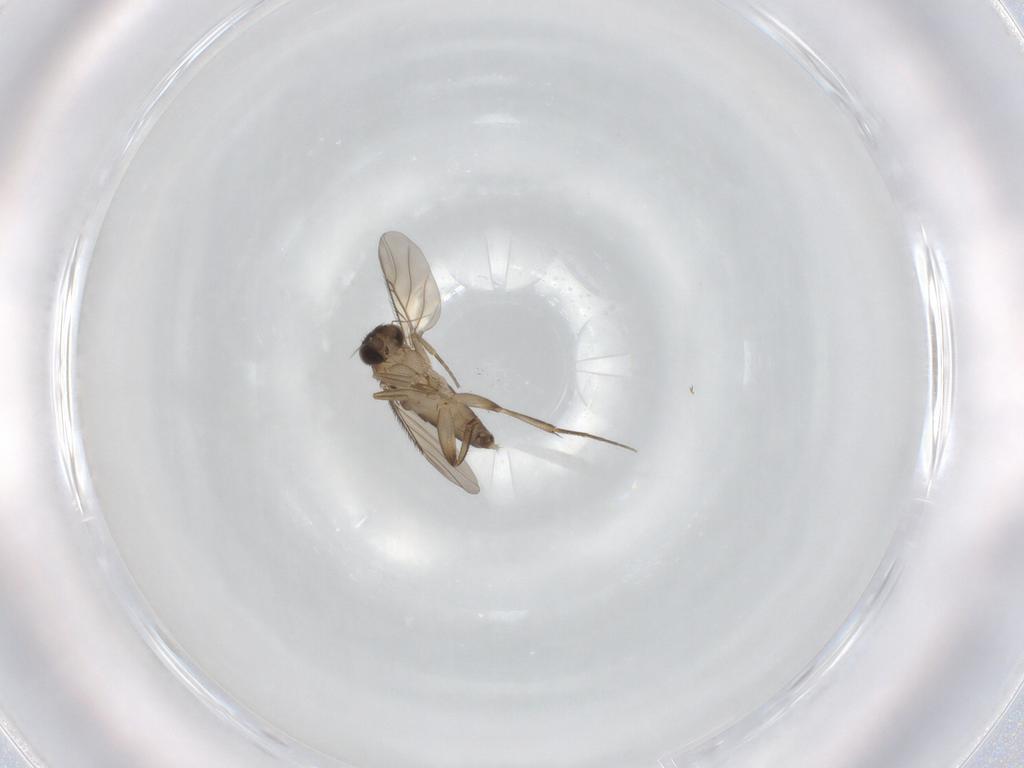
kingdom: Animalia
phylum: Arthropoda
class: Insecta
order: Diptera
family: Phoridae
